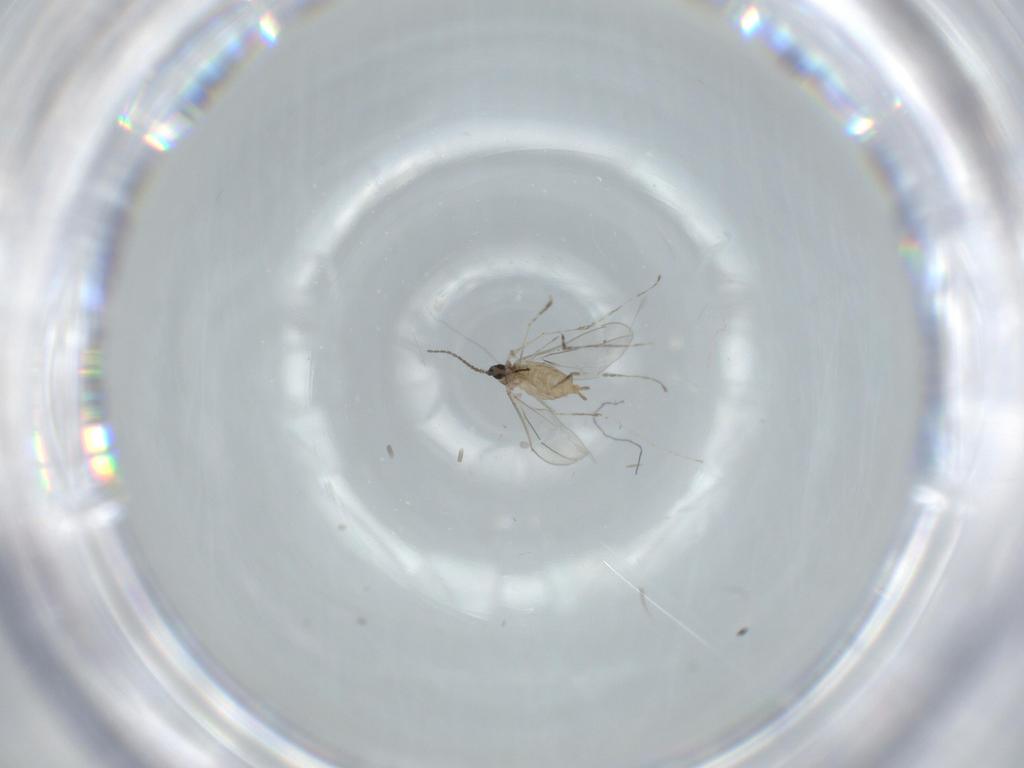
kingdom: Animalia
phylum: Arthropoda
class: Insecta
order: Diptera
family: Cecidomyiidae
